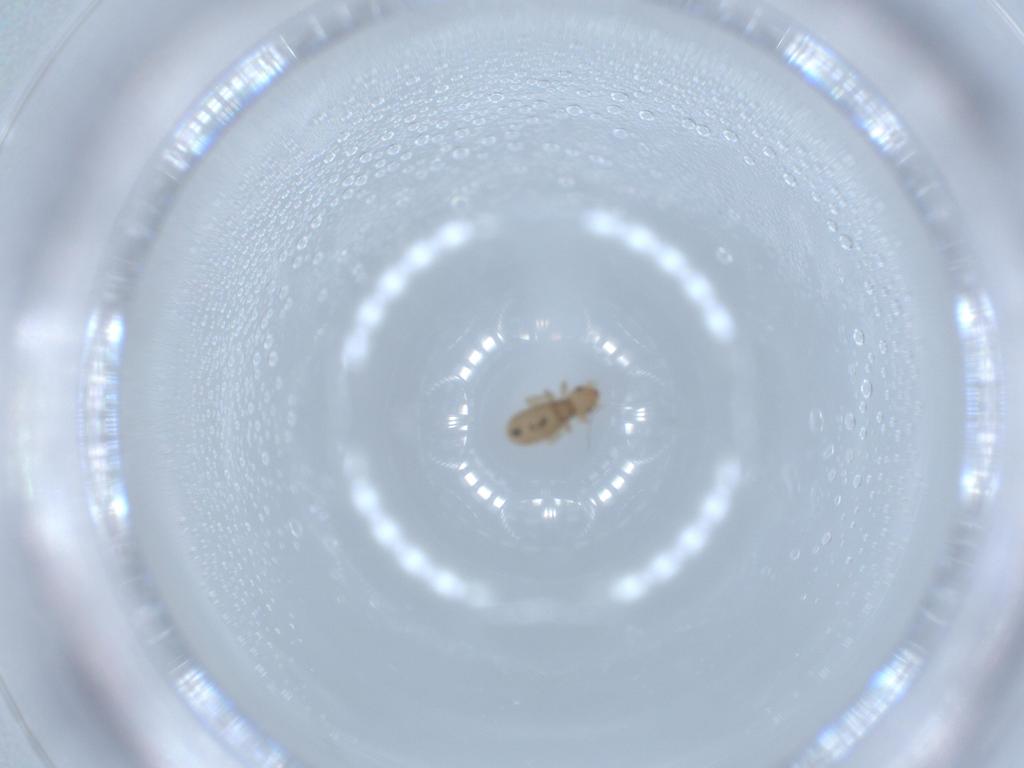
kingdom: Animalia
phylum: Arthropoda
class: Insecta
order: Psocodea
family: Liposcelididae
